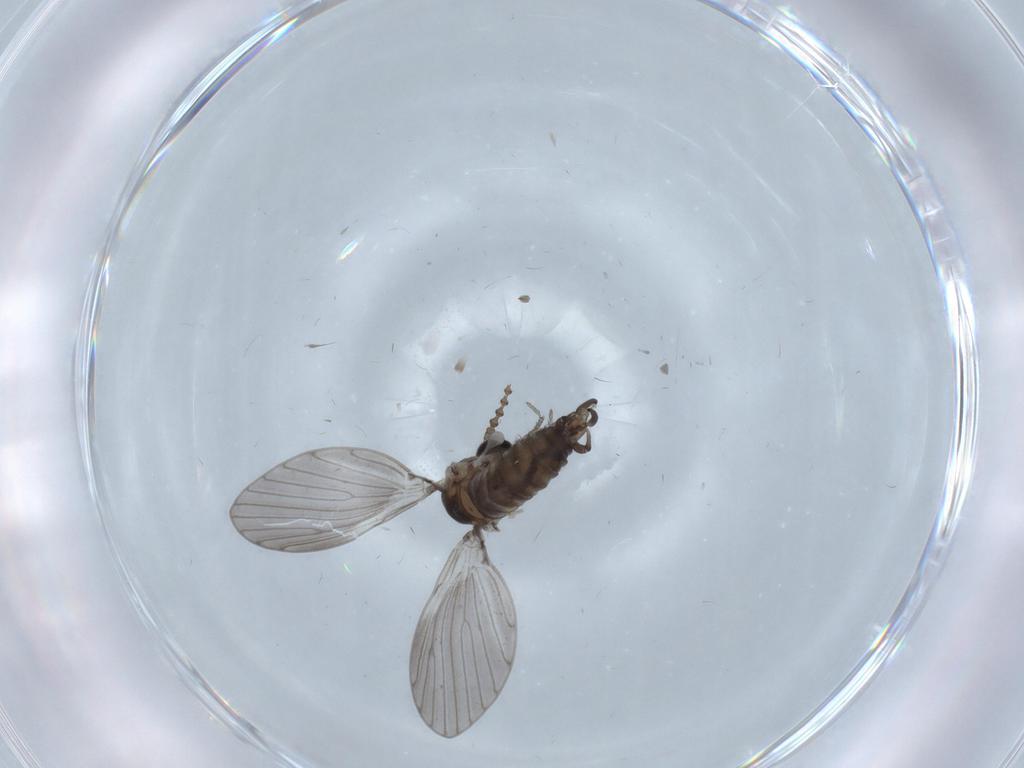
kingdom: Animalia
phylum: Arthropoda
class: Insecta
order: Diptera
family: Psychodidae
